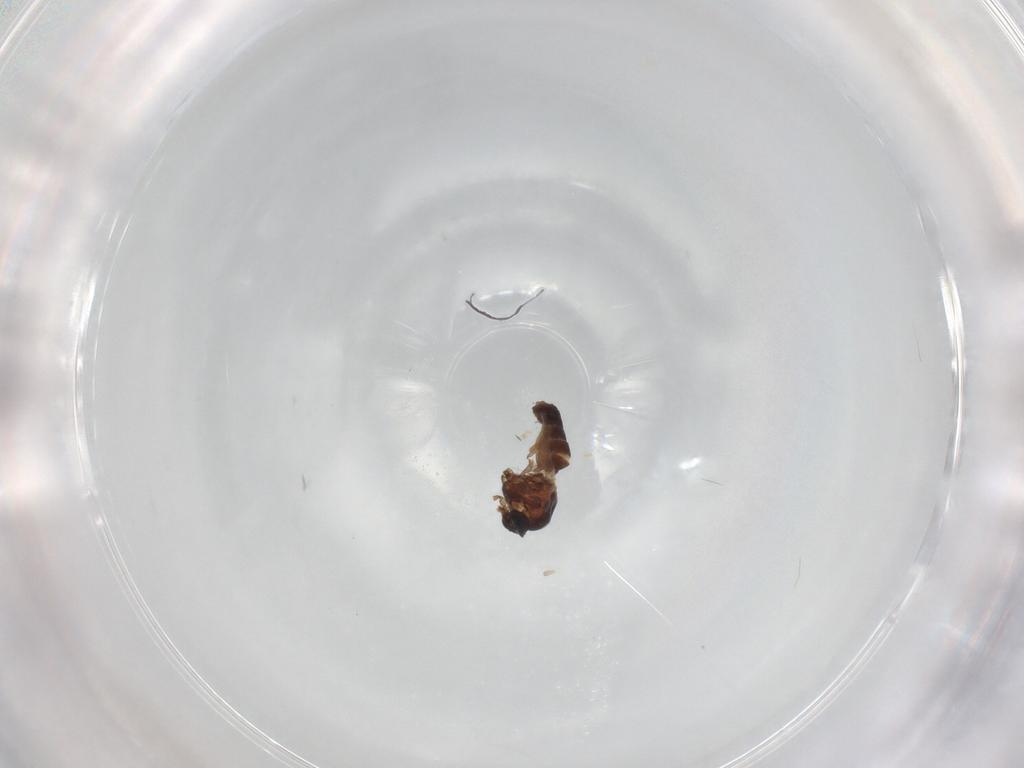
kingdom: Animalia
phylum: Arthropoda
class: Insecta
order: Diptera
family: Ceratopogonidae
